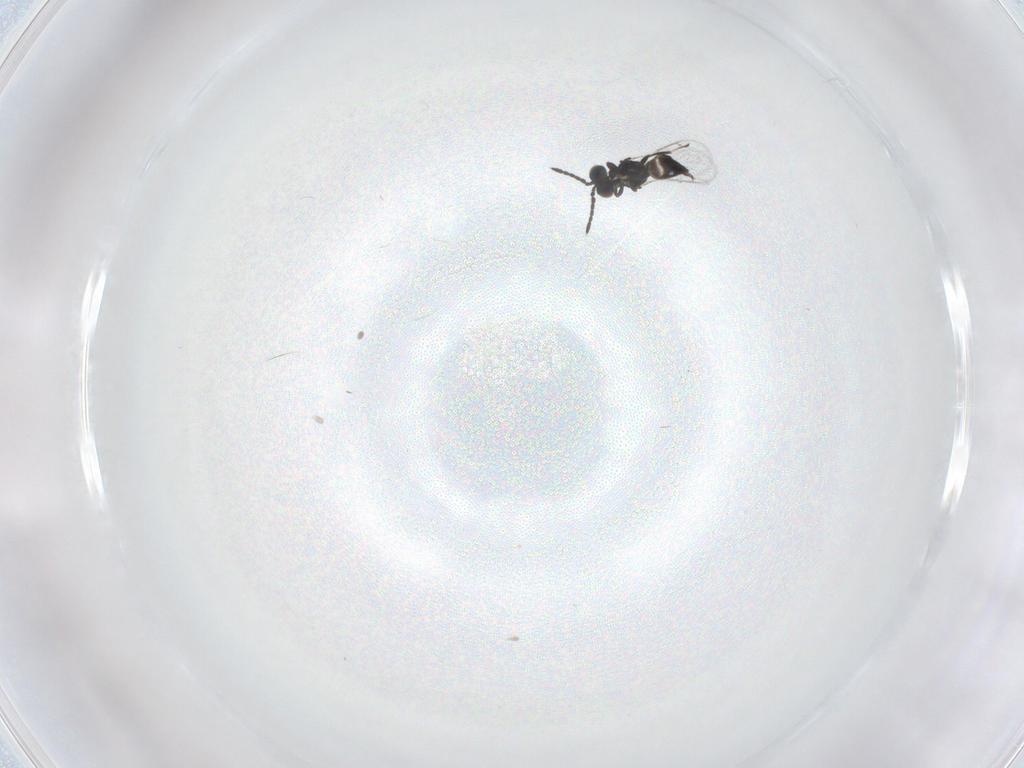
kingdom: Animalia
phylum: Arthropoda
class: Insecta
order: Hymenoptera
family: Eulophidae
